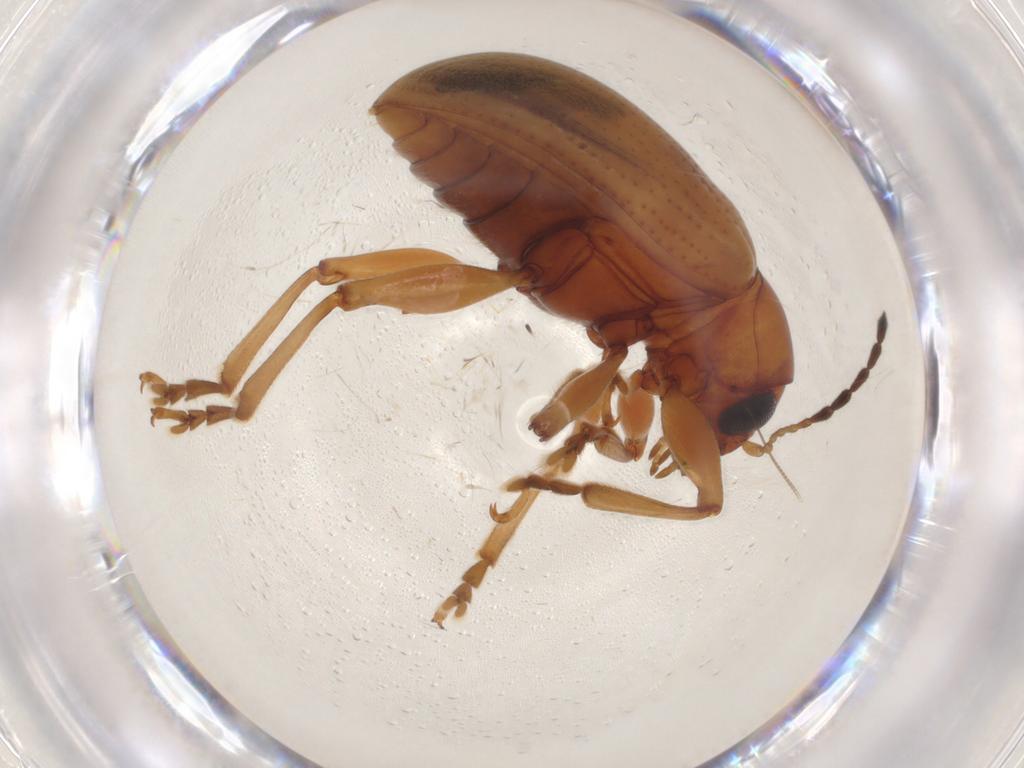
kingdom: Animalia
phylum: Arthropoda
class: Insecta
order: Coleoptera
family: Chrysomelidae
